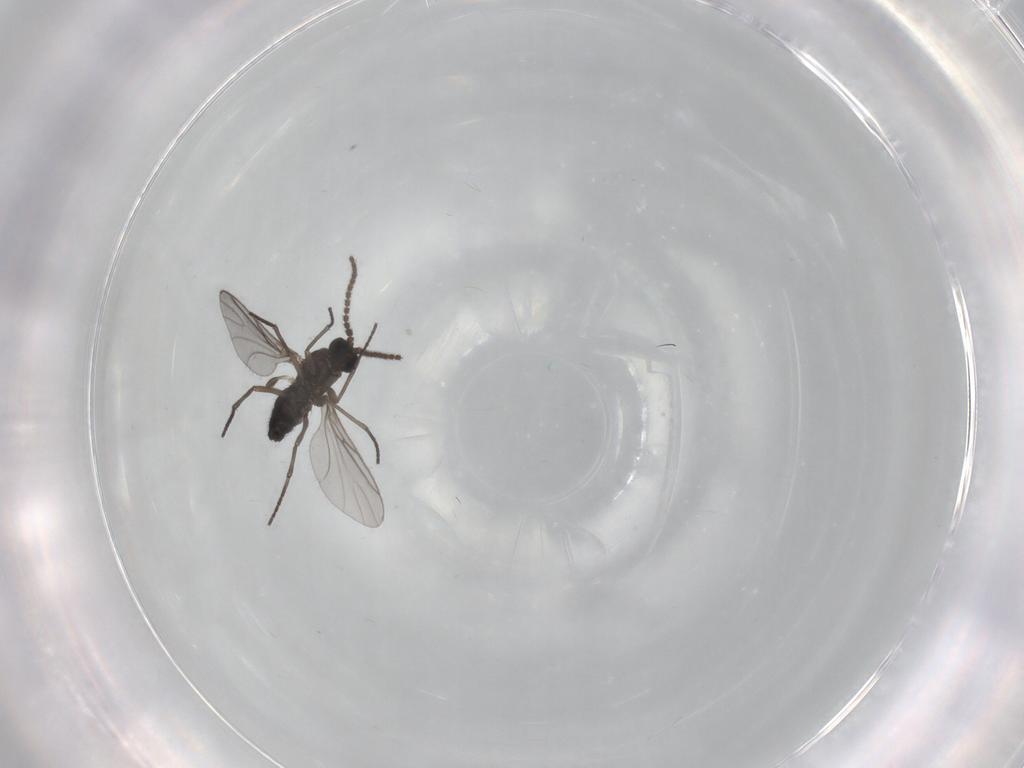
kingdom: Animalia
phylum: Arthropoda
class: Insecta
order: Diptera
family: Sciaridae
